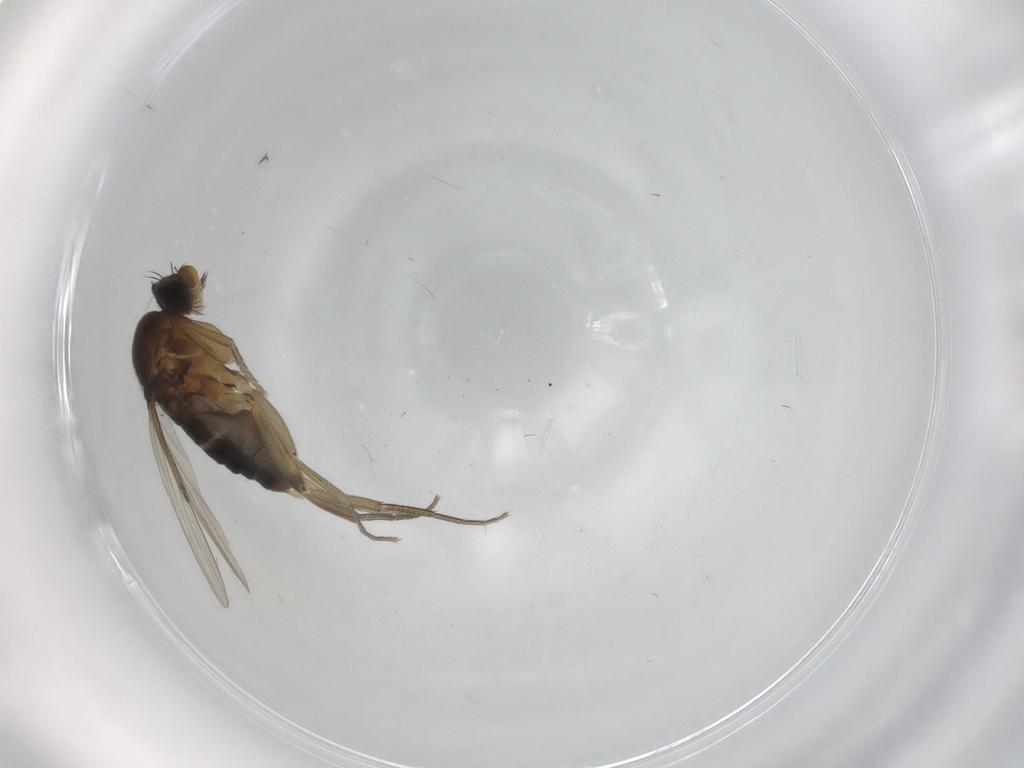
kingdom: Animalia
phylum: Arthropoda
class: Insecta
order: Diptera
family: Phoridae
